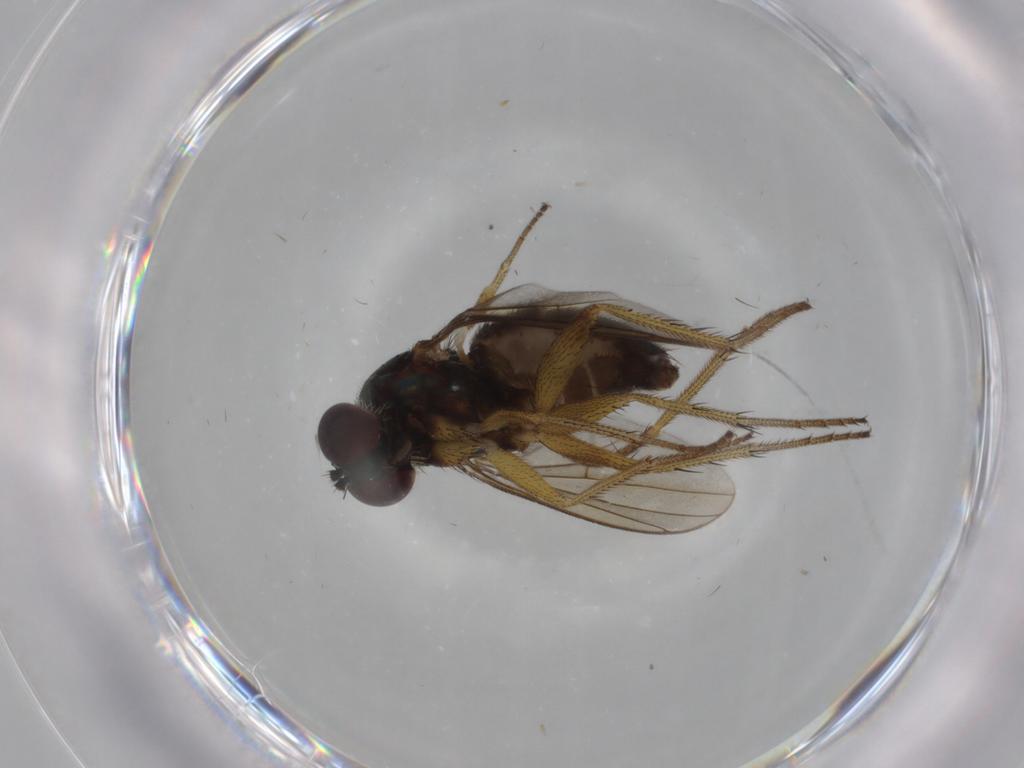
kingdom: Animalia
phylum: Arthropoda
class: Insecta
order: Diptera
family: Dolichopodidae
